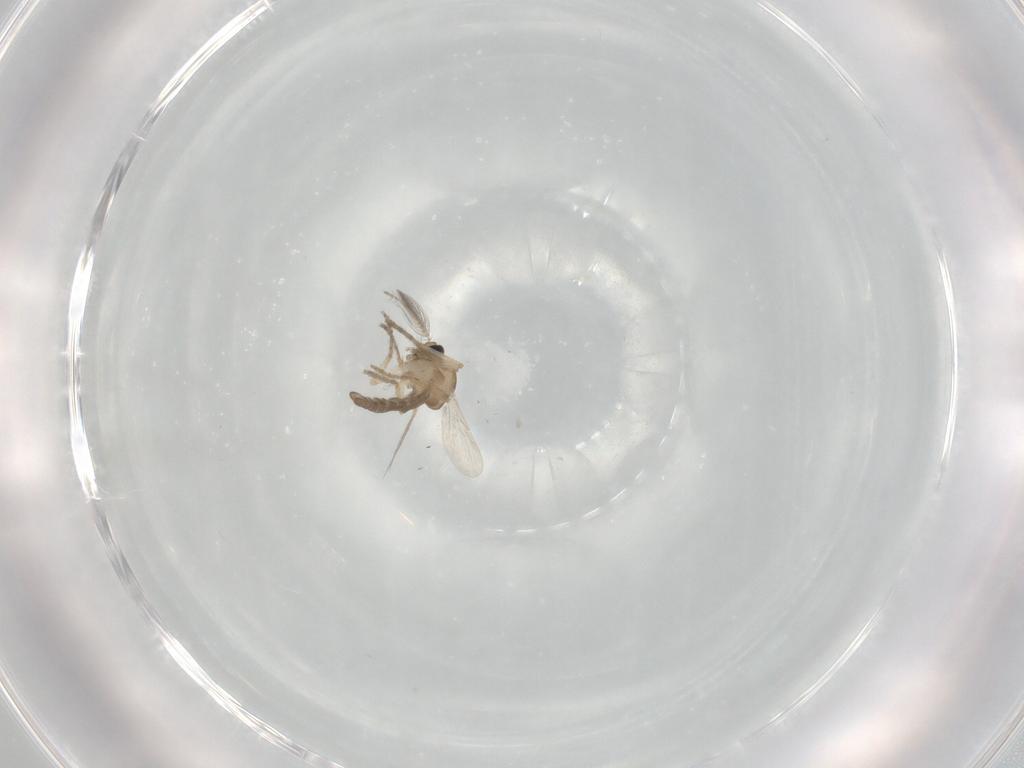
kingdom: Animalia
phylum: Arthropoda
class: Insecta
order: Diptera
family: Ceratopogonidae
